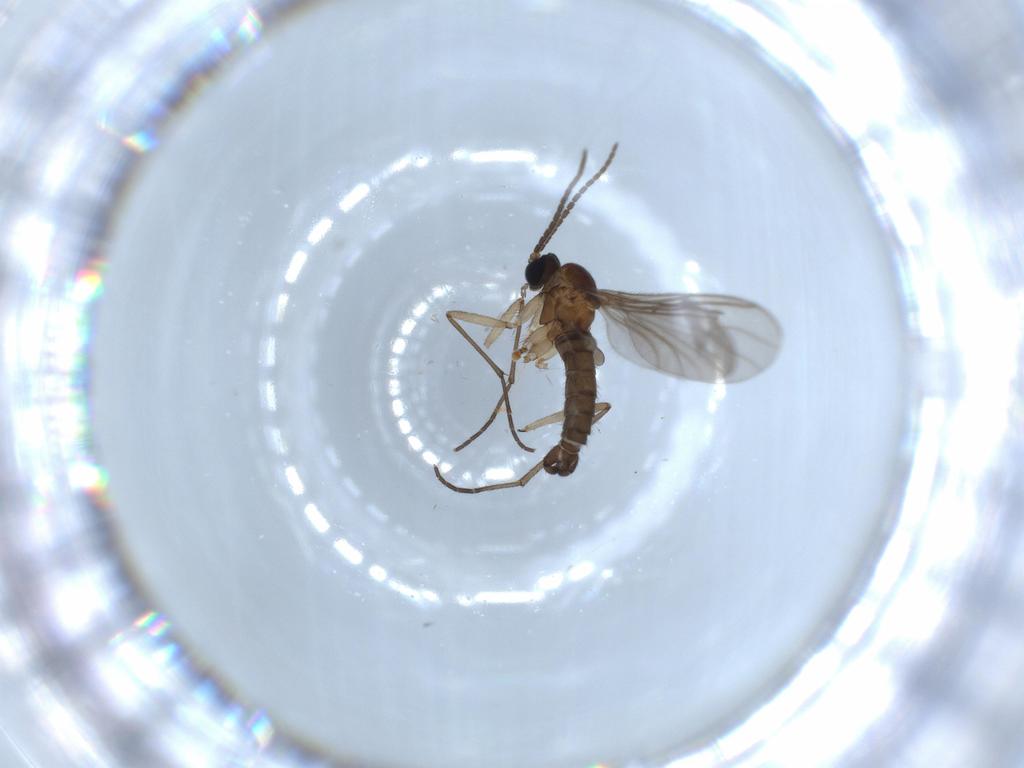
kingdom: Animalia
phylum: Arthropoda
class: Insecta
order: Diptera
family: Sciaridae
